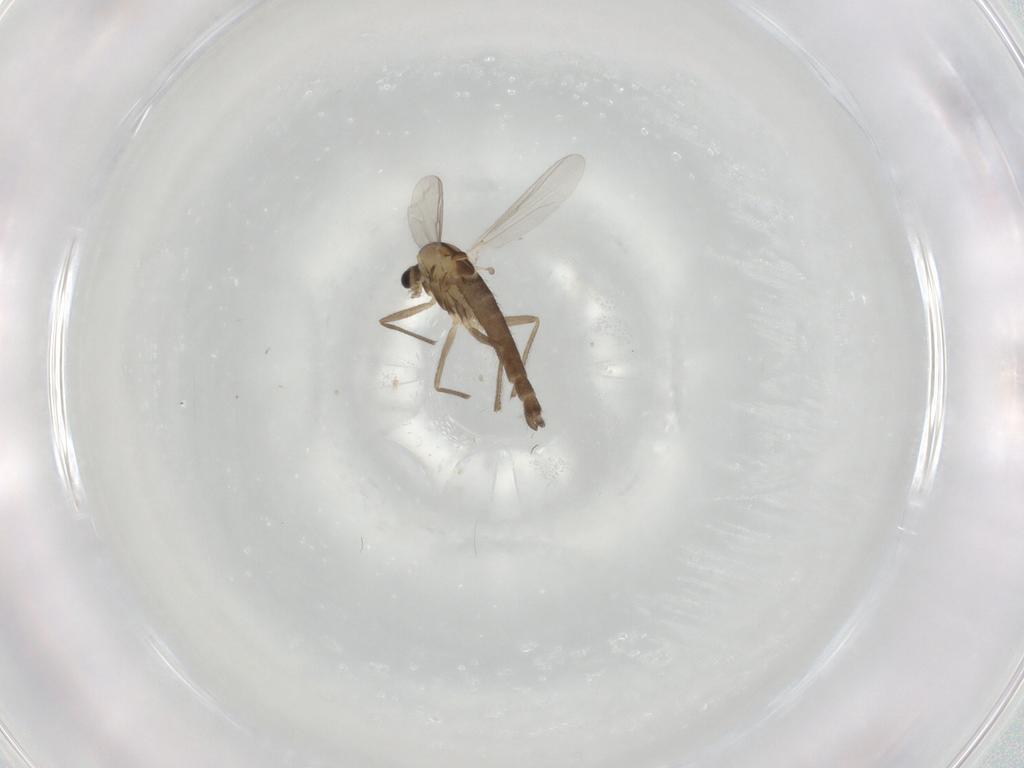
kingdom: Animalia
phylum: Arthropoda
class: Insecta
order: Diptera
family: Chironomidae
